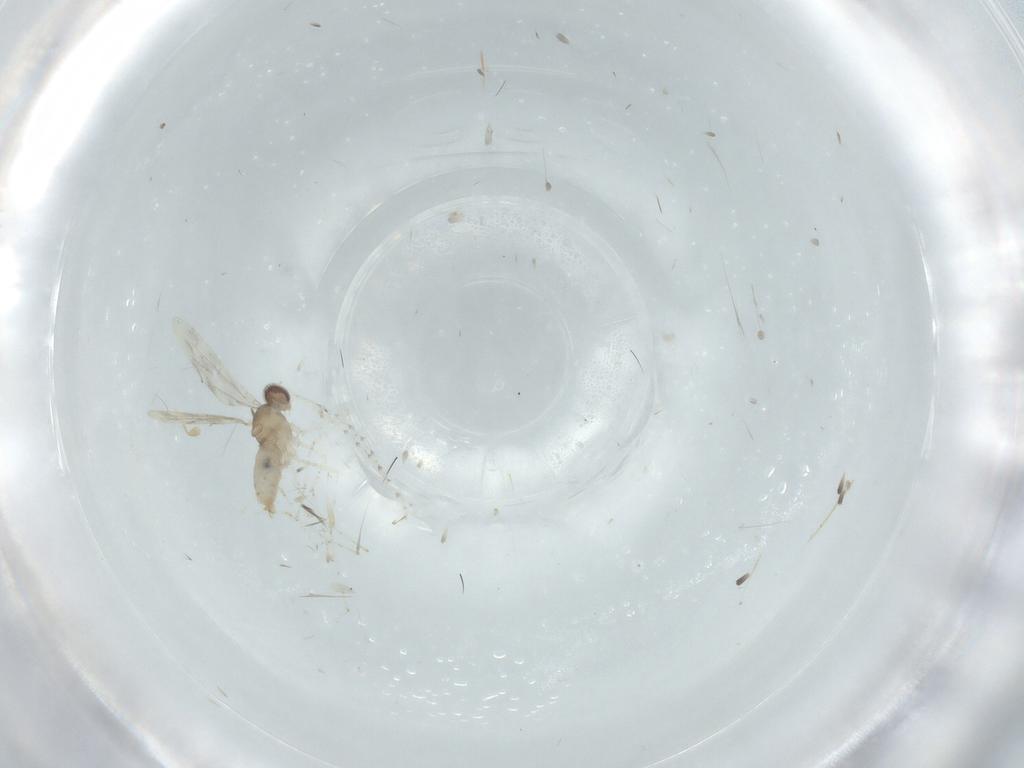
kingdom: Animalia
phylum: Arthropoda
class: Insecta
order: Diptera
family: Cecidomyiidae
